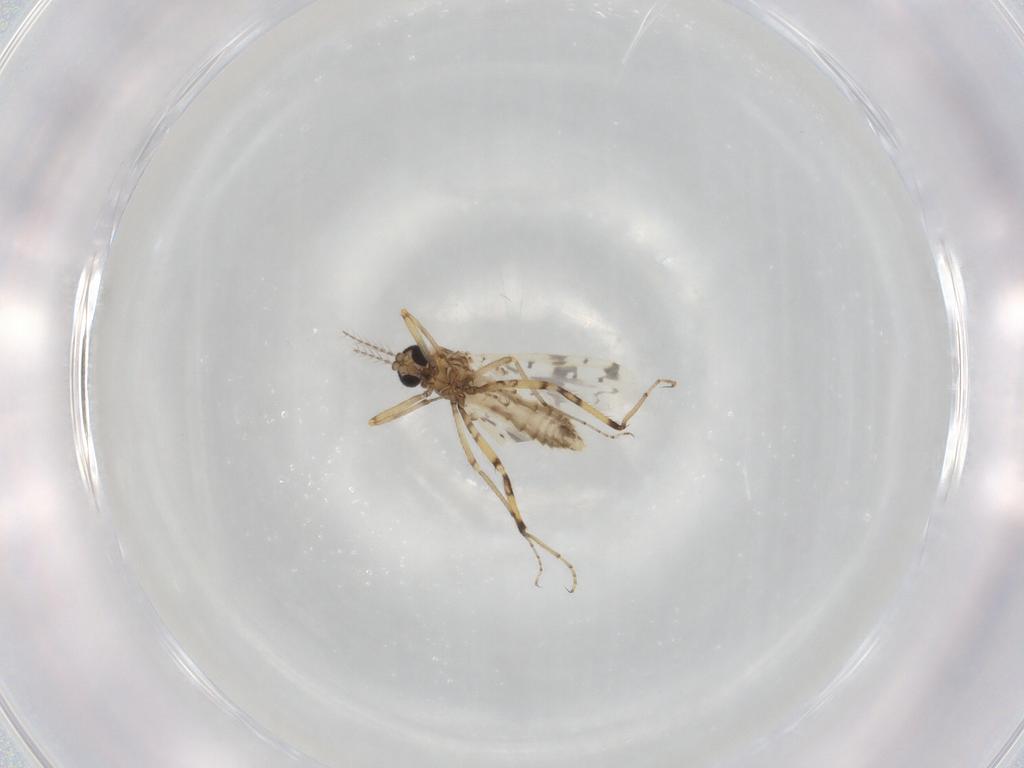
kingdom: Animalia
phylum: Arthropoda
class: Insecta
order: Diptera
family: Ceratopogonidae
